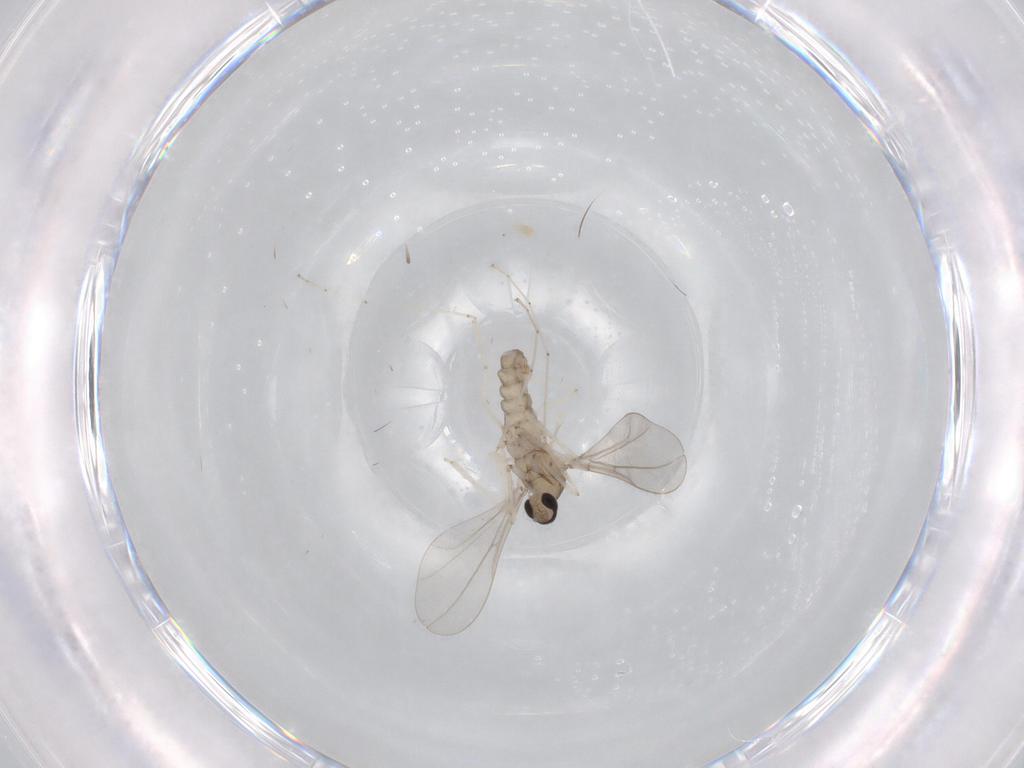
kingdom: Animalia
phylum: Arthropoda
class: Insecta
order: Diptera
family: Cecidomyiidae
